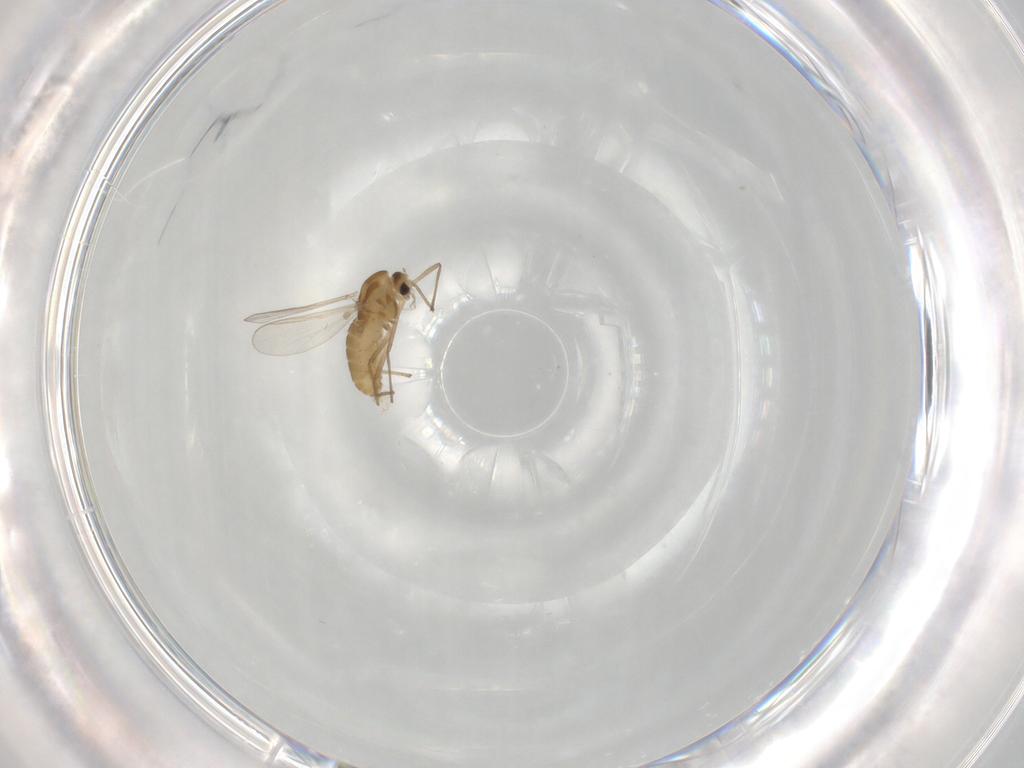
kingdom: Animalia
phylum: Arthropoda
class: Insecta
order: Diptera
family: Chironomidae
